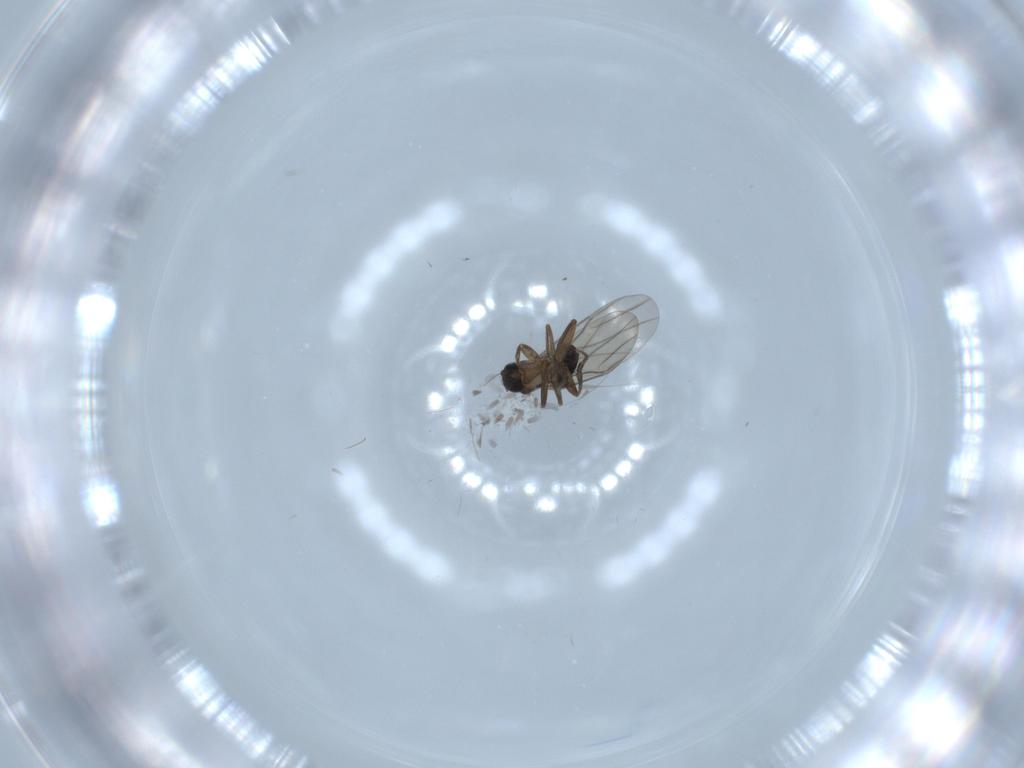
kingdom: Animalia
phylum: Arthropoda
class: Insecta
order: Diptera
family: Phoridae
